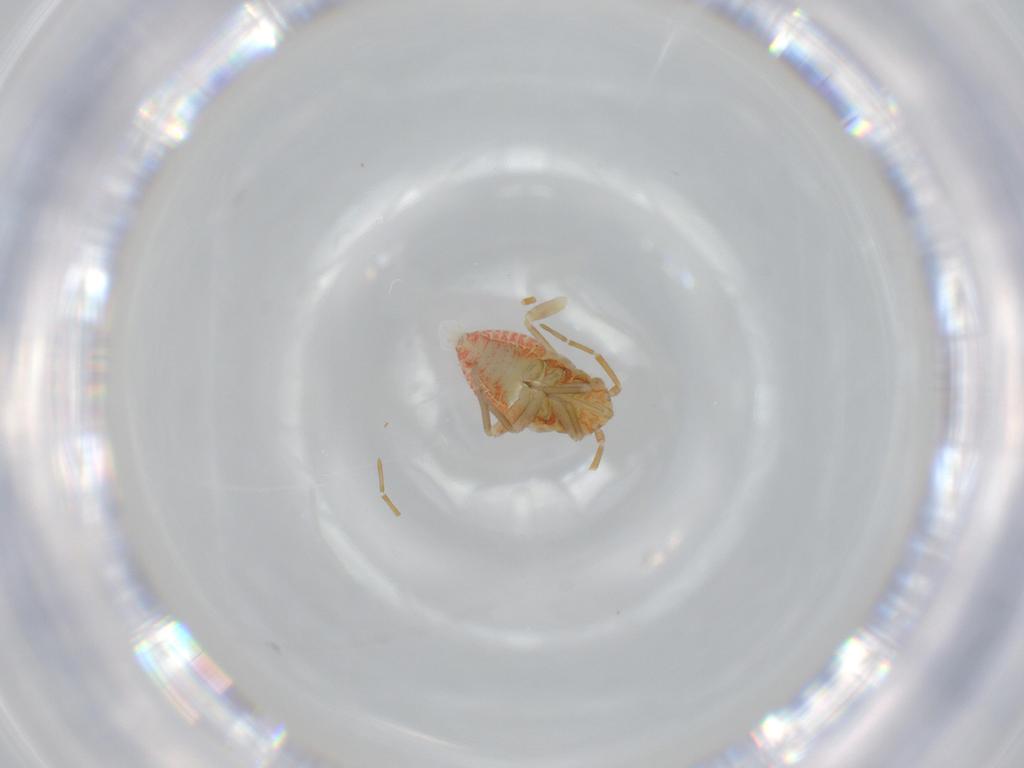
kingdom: Animalia
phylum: Arthropoda
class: Insecta
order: Hemiptera
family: Miridae
